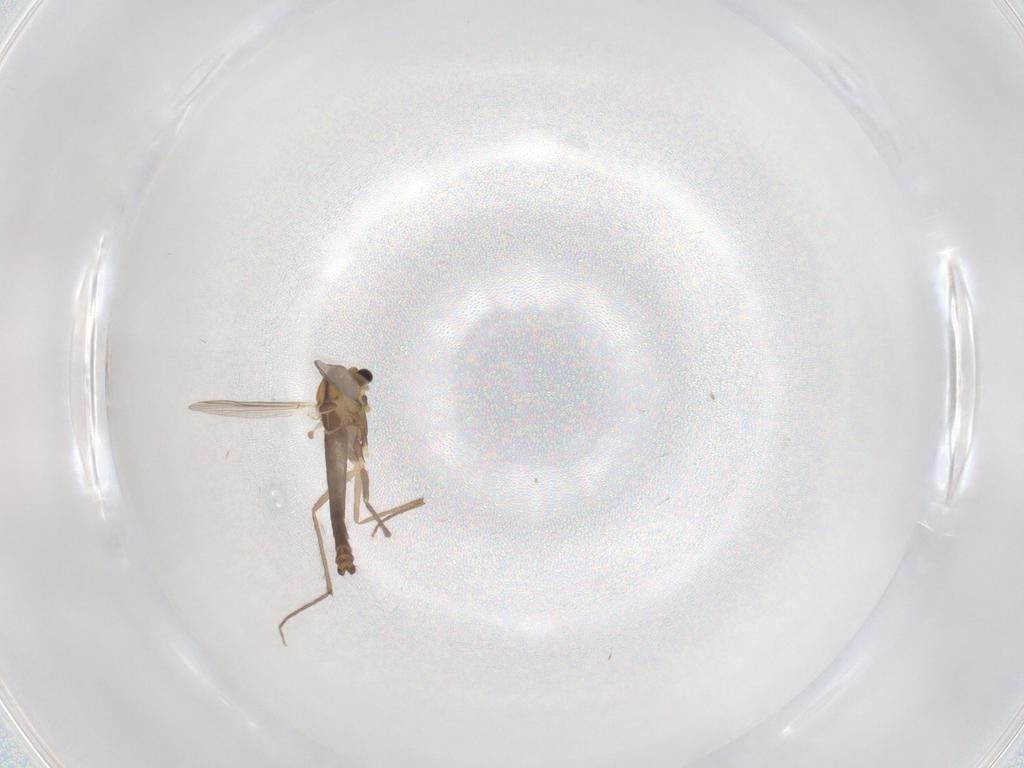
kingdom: Animalia
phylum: Arthropoda
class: Insecta
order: Diptera
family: Chironomidae
